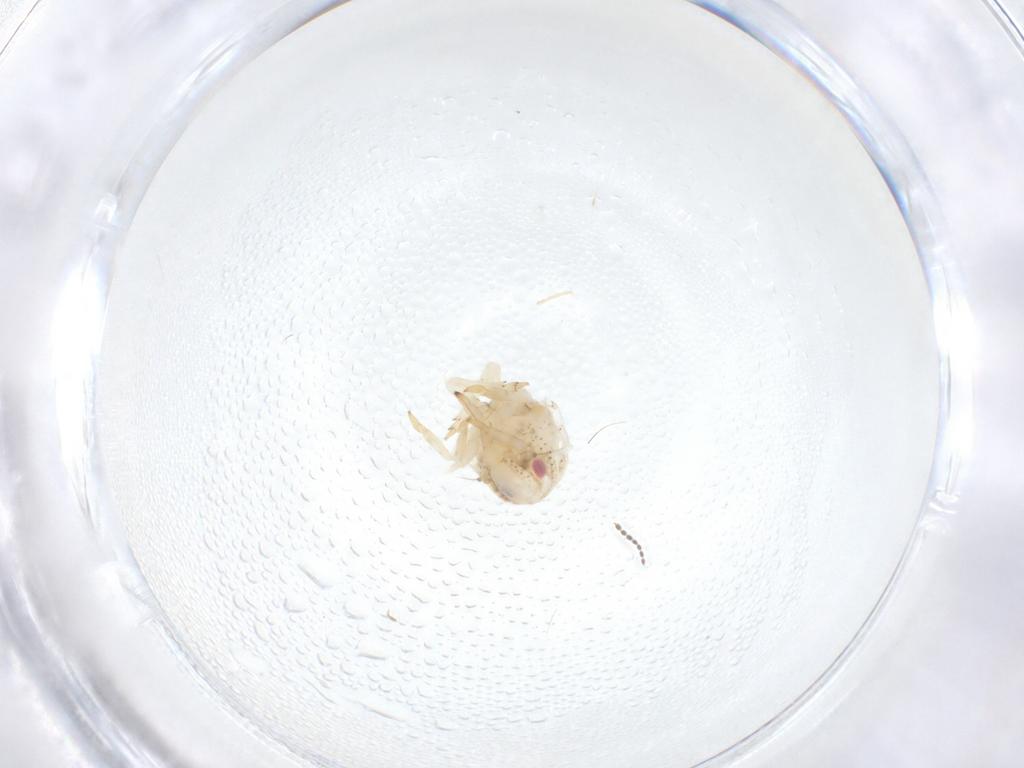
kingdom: Animalia
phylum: Arthropoda
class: Insecta
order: Hemiptera
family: Acanaloniidae
